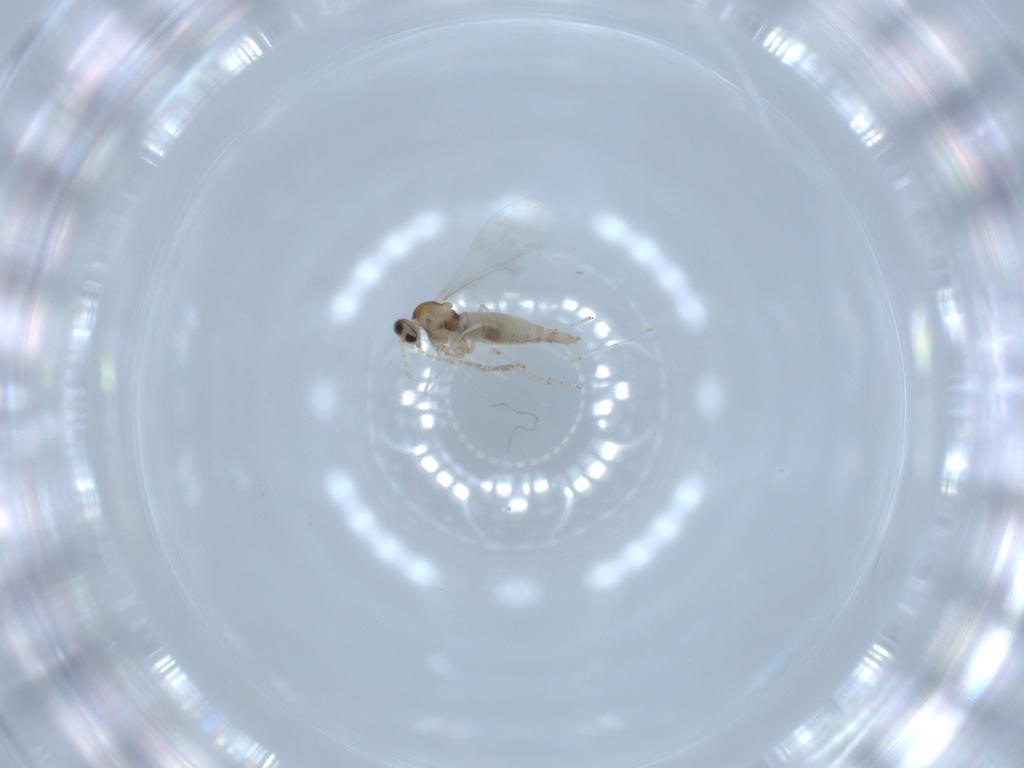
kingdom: Animalia
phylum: Arthropoda
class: Insecta
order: Diptera
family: Cecidomyiidae
